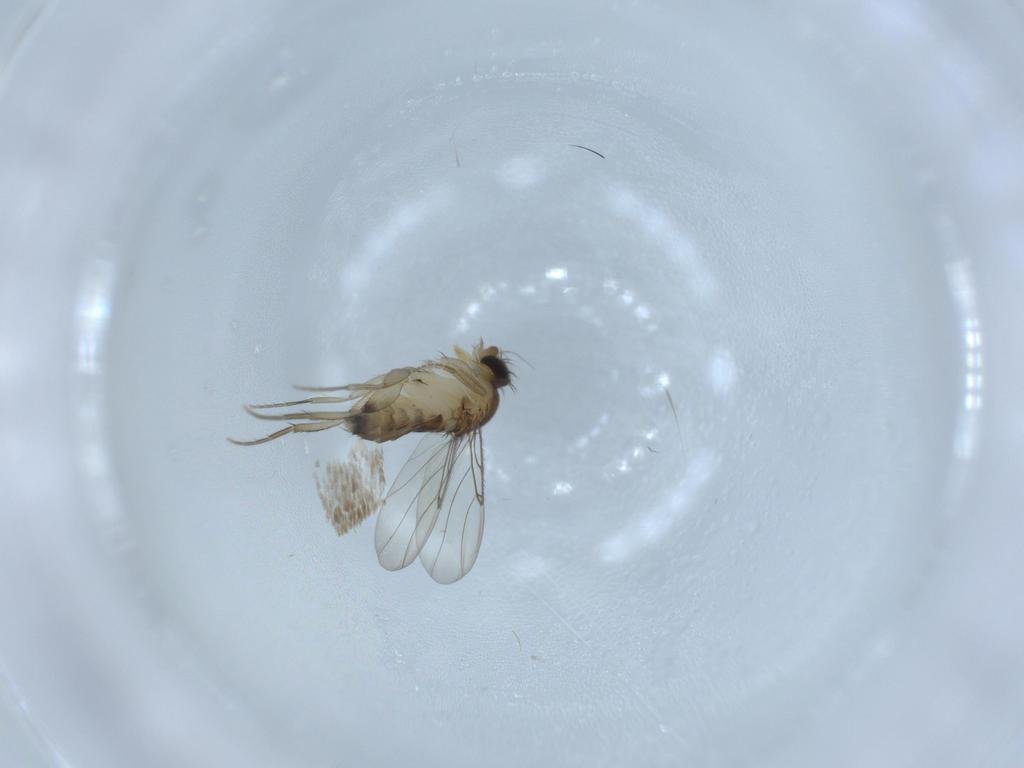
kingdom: Animalia
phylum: Arthropoda
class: Insecta
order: Diptera
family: Phoridae
